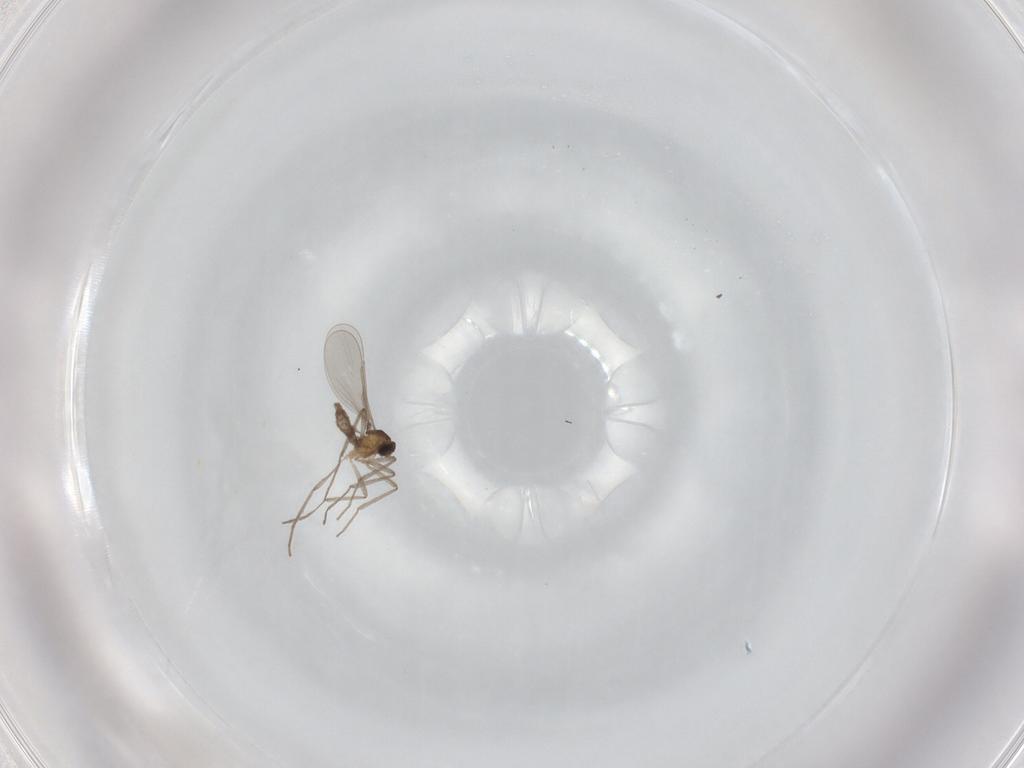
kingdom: Animalia
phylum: Arthropoda
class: Insecta
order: Diptera
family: Cecidomyiidae
